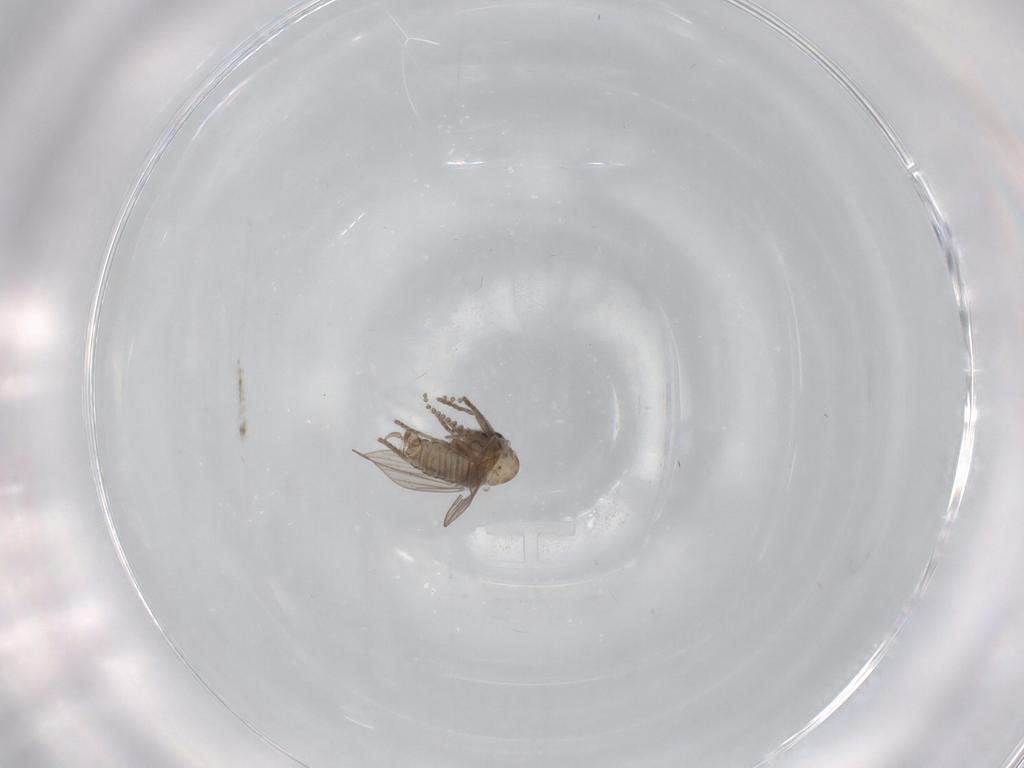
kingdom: Animalia
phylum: Arthropoda
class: Insecta
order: Diptera
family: Psychodidae
